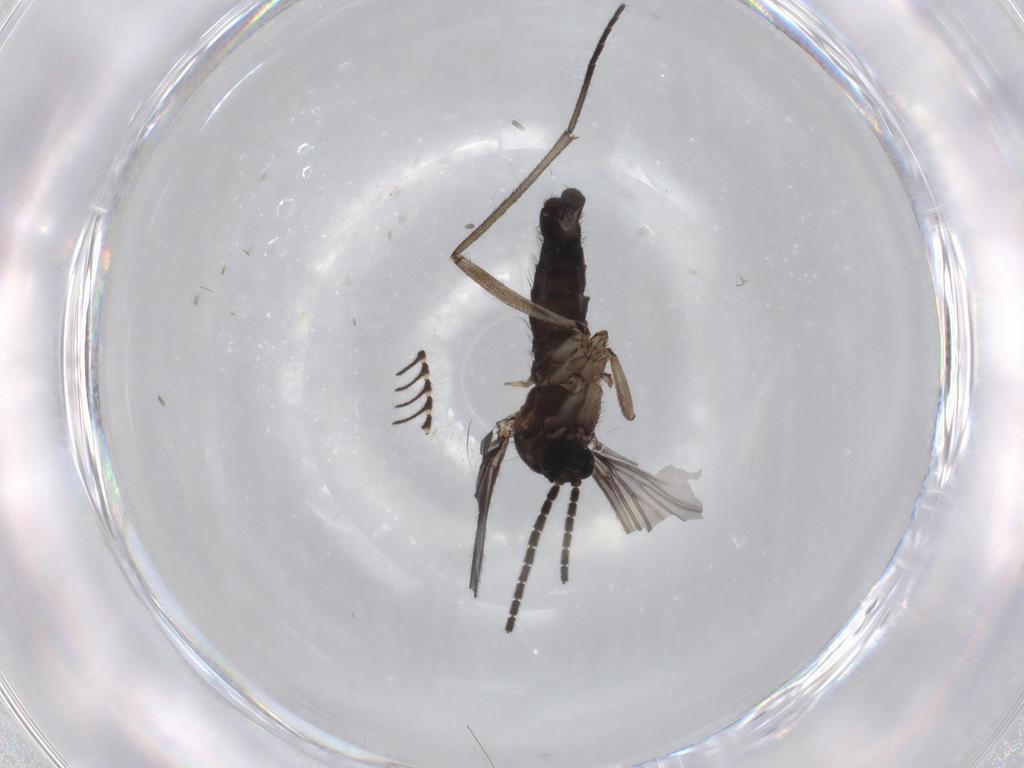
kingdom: Animalia
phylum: Arthropoda
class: Insecta
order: Diptera
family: Sciaridae
